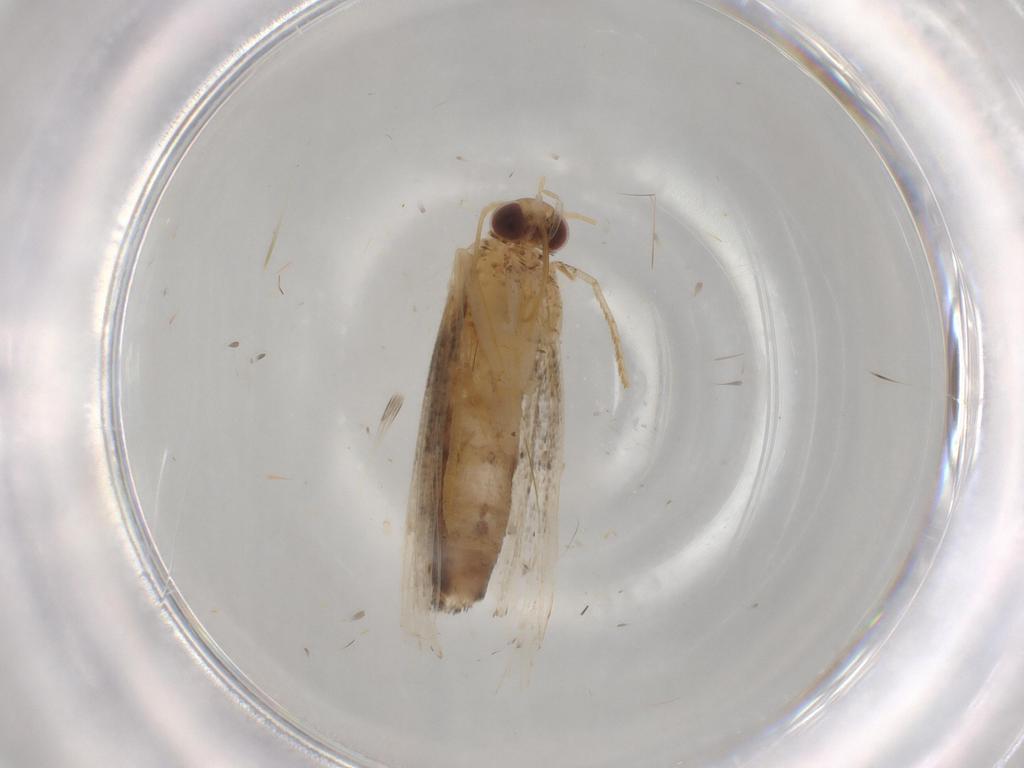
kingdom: Animalia
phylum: Arthropoda
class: Insecta
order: Lepidoptera
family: Erebidae
